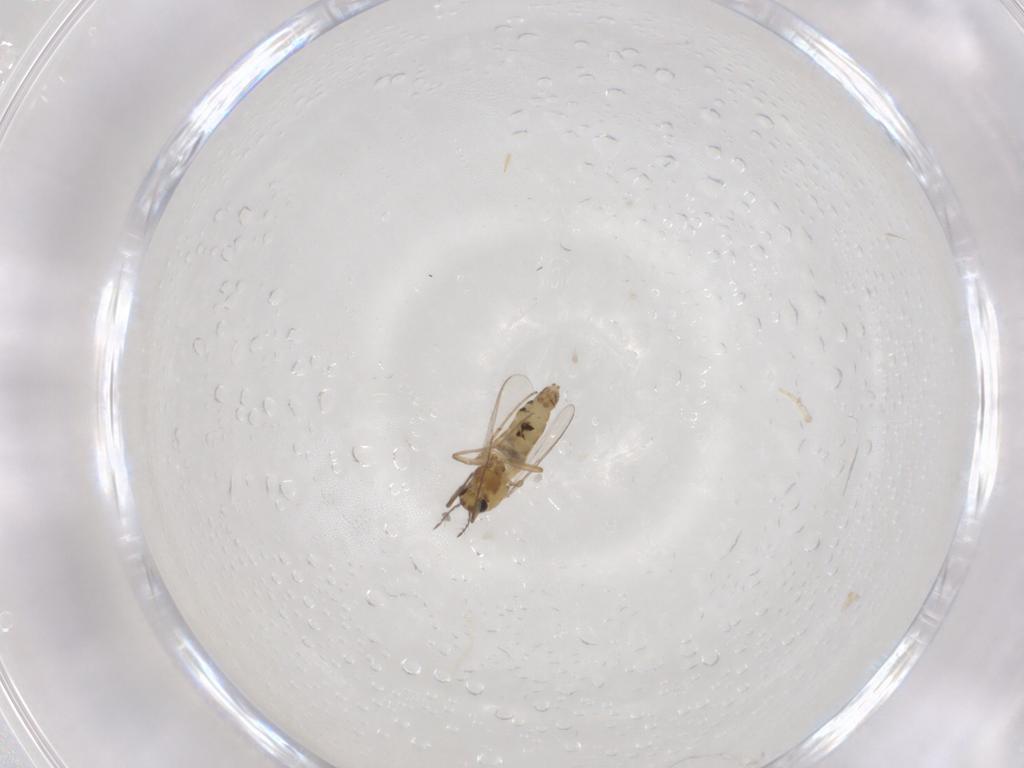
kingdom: Animalia
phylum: Arthropoda
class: Insecta
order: Diptera
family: Chironomidae
